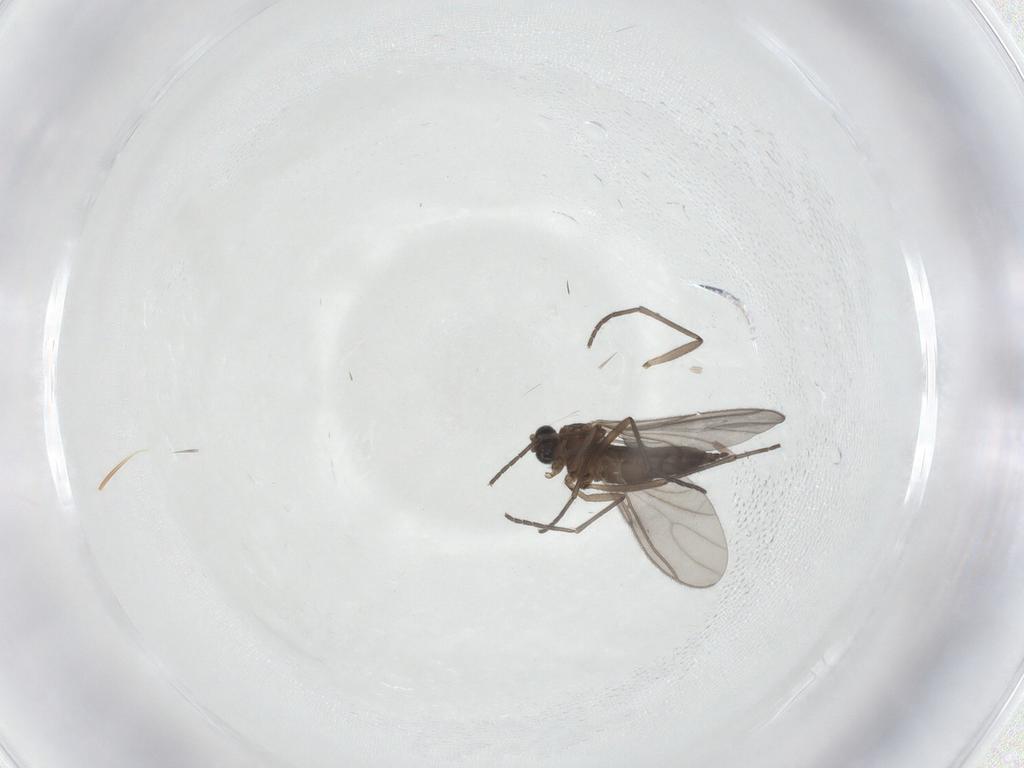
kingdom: Animalia
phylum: Arthropoda
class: Insecta
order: Diptera
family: Sciaridae
